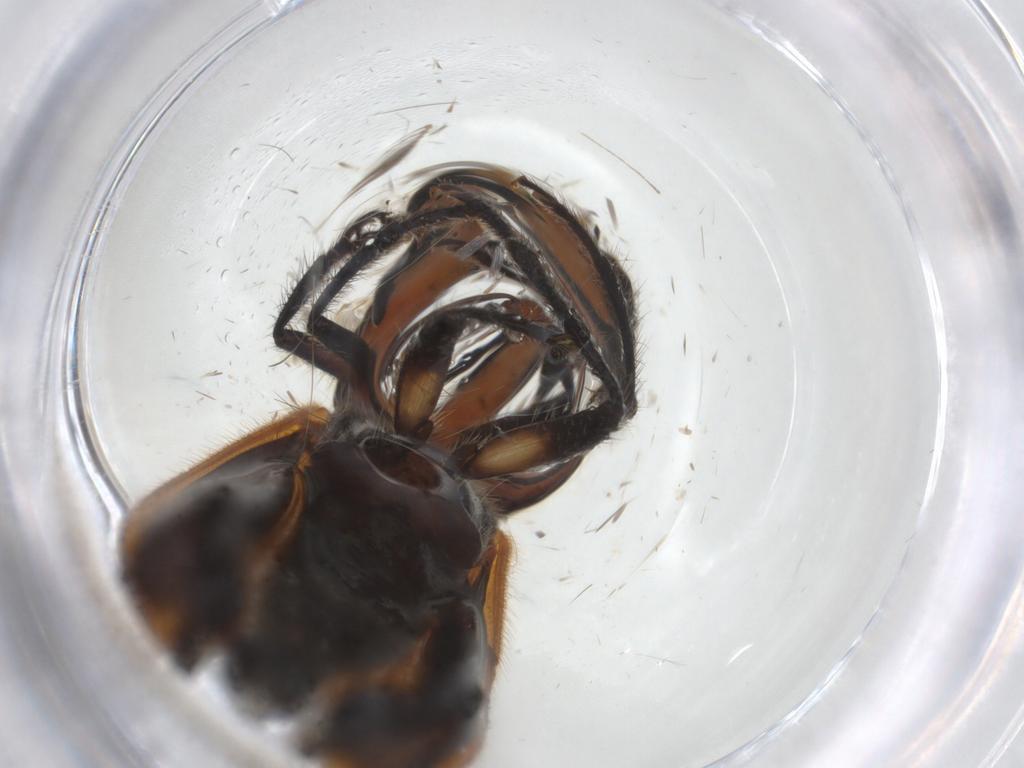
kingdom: Animalia
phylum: Arthropoda
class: Insecta
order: Coleoptera
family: Cleridae
